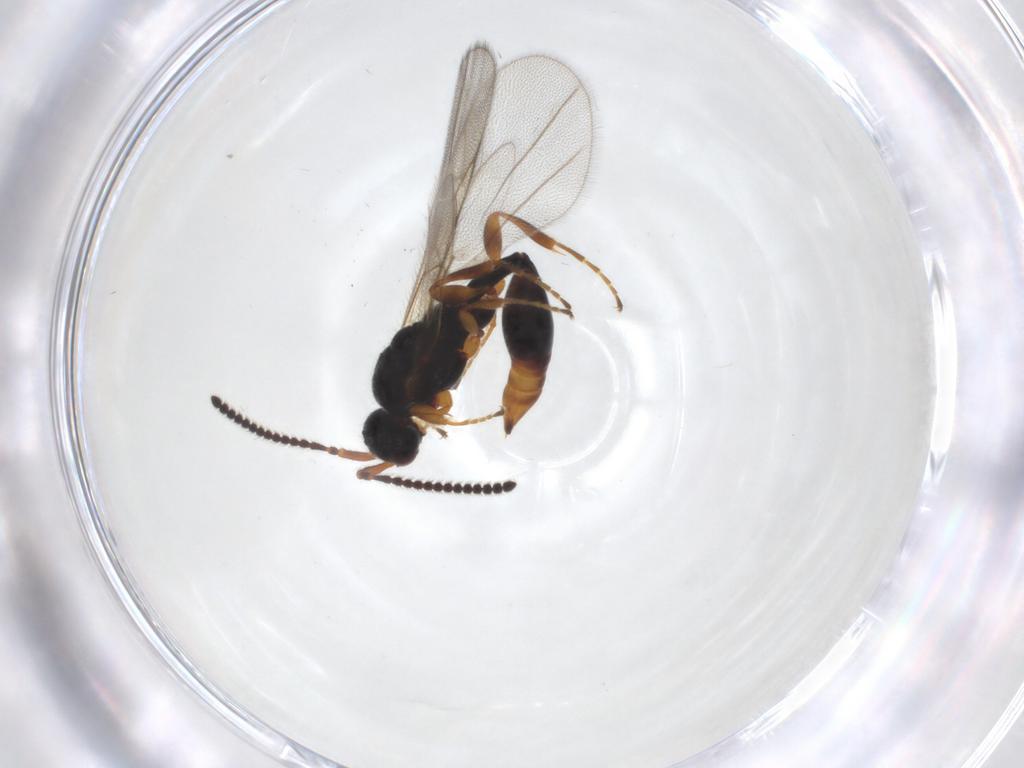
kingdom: Animalia
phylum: Arthropoda
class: Insecta
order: Hymenoptera
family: Diapriidae
